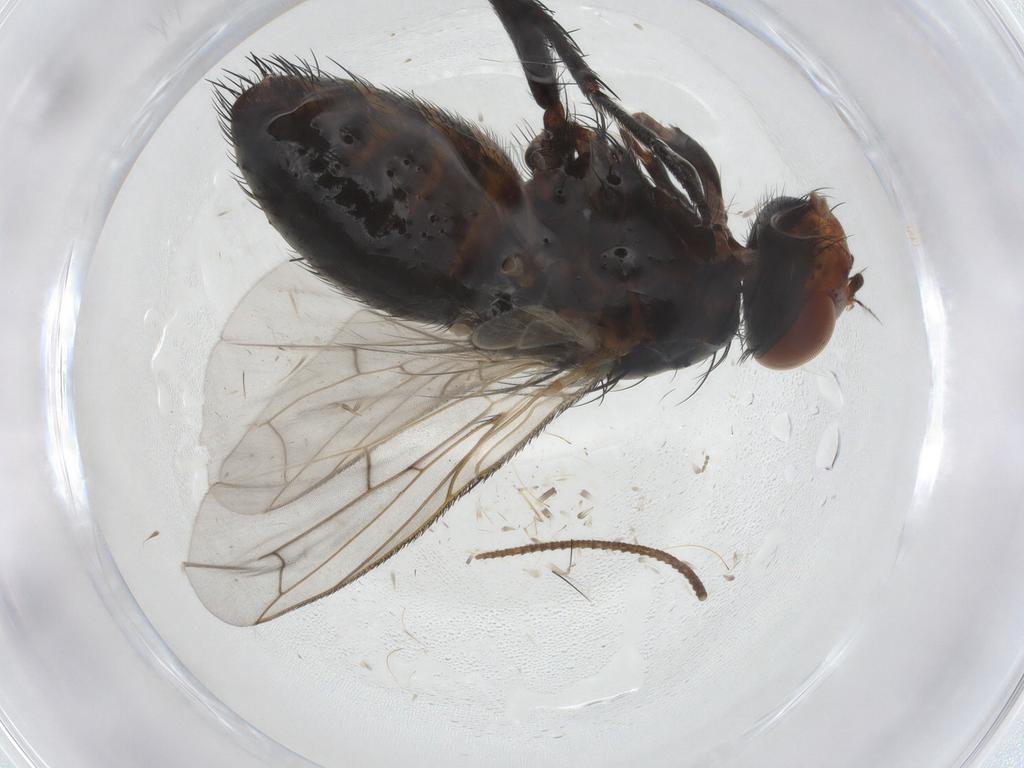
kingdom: Animalia
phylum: Arthropoda
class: Insecta
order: Diptera
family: Tachinidae
